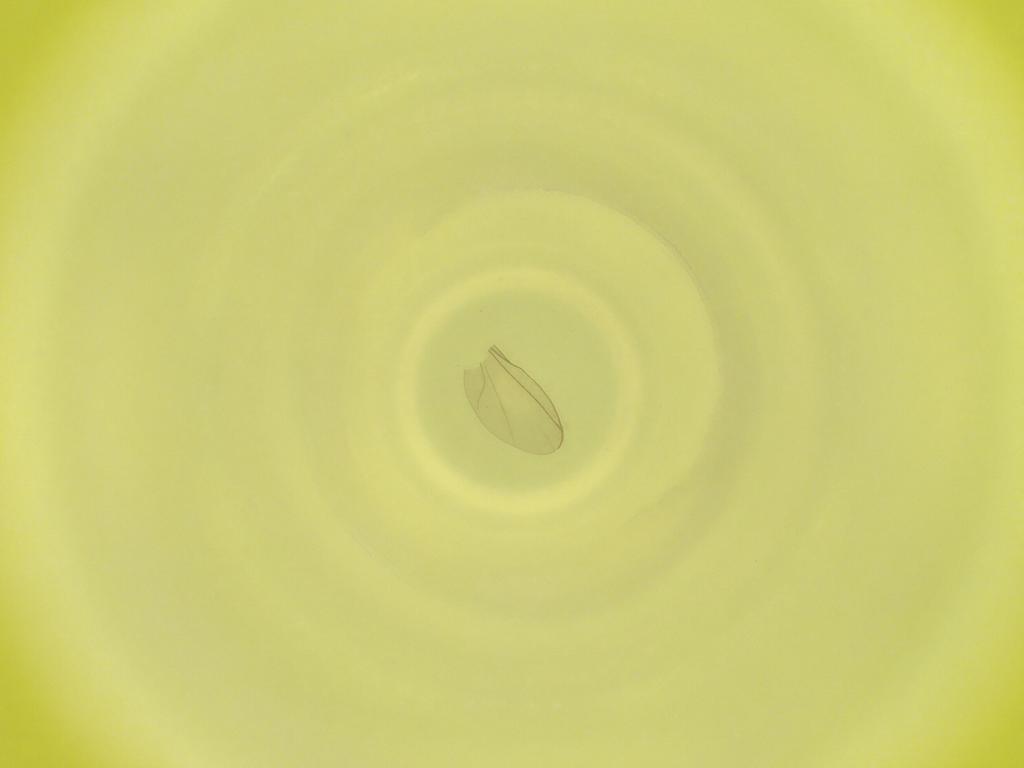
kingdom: Animalia
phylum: Arthropoda
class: Insecta
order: Diptera
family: Cecidomyiidae
